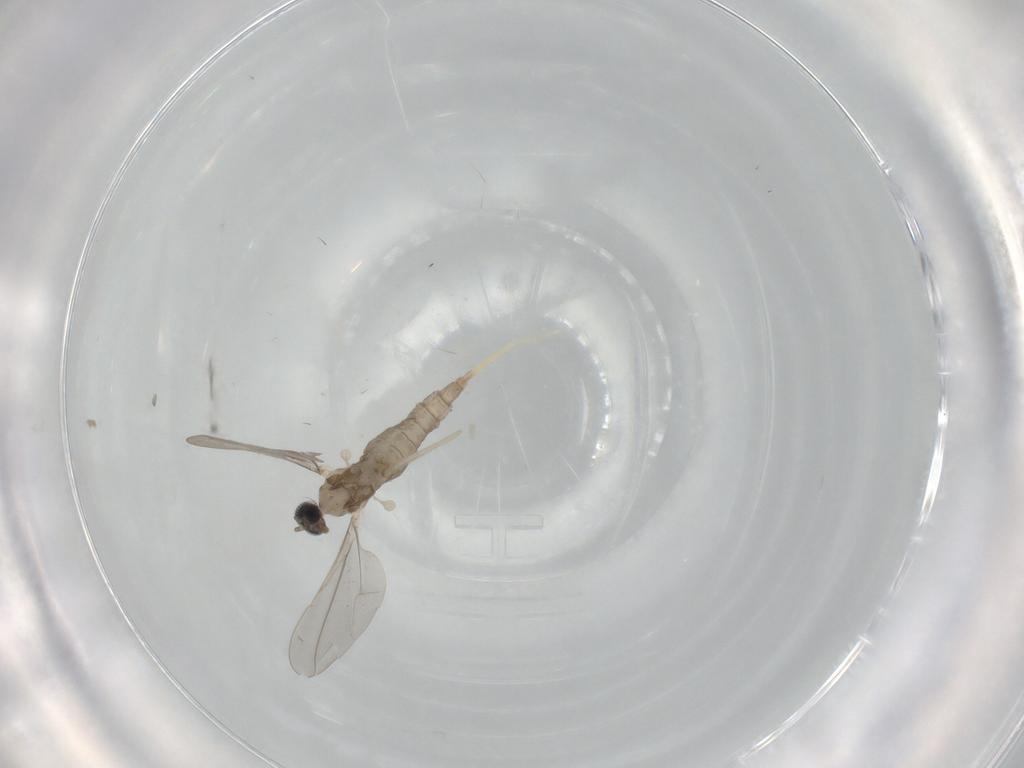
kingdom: Animalia
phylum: Arthropoda
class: Insecta
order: Diptera
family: Cecidomyiidae
